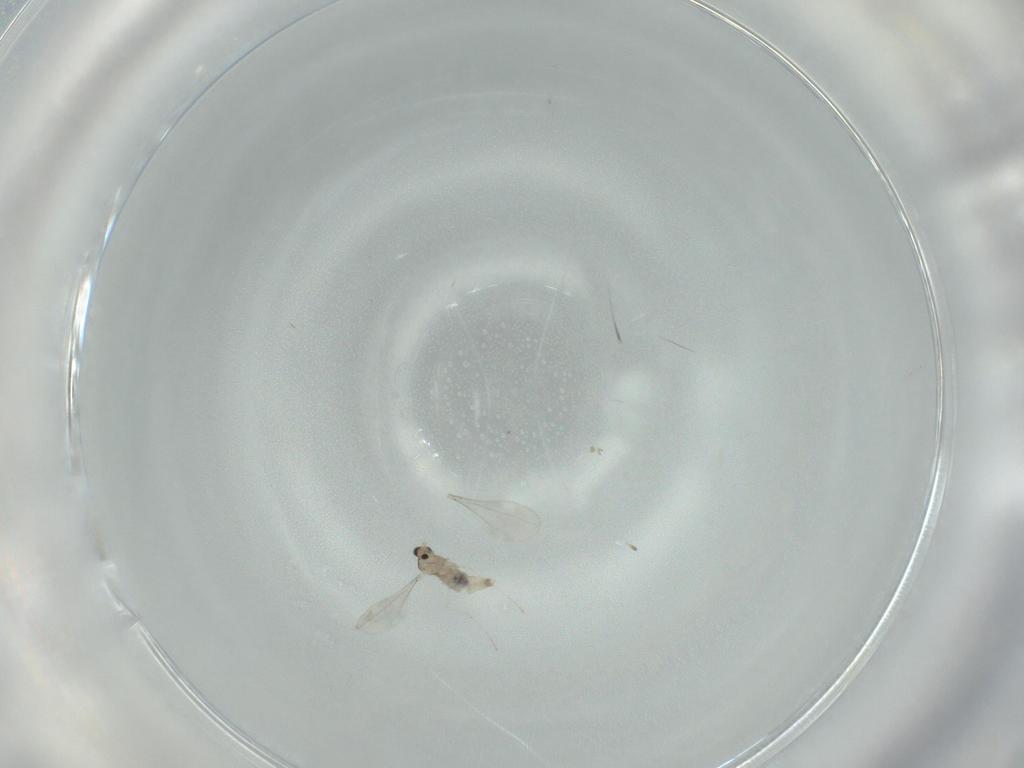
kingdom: Animalia
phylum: Arthropoda
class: Insecta
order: Diptera
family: Cecidomyiidae
